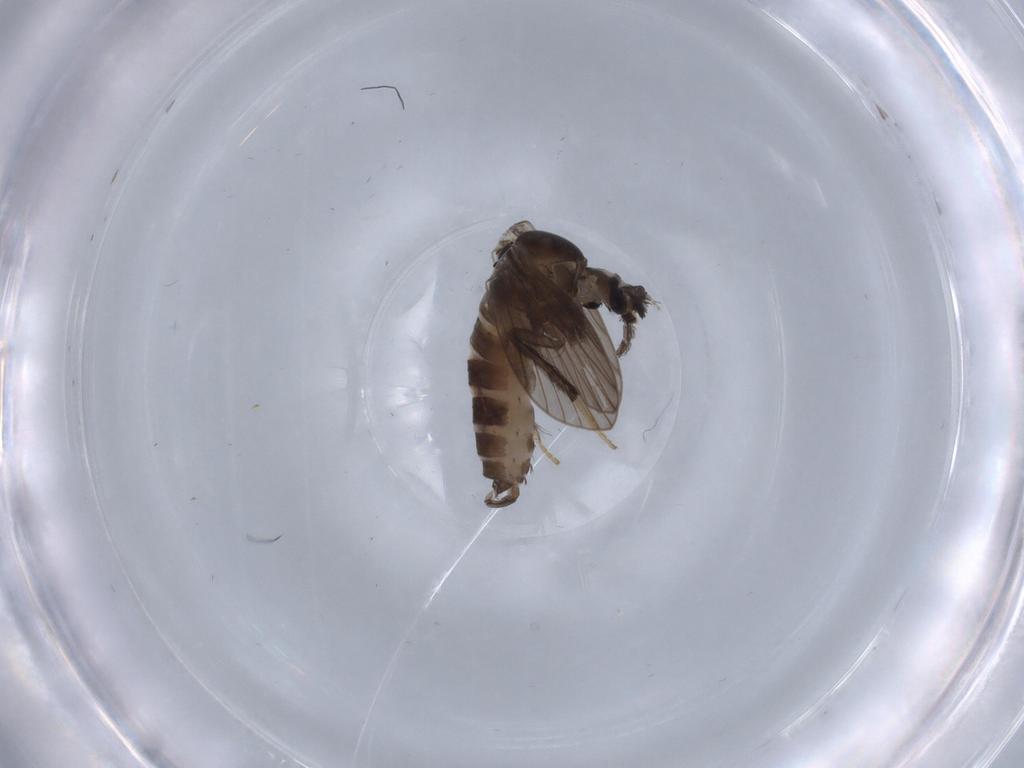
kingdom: Animalia
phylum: Arthropoda
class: Insecta
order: Diptera
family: Psychodidae
